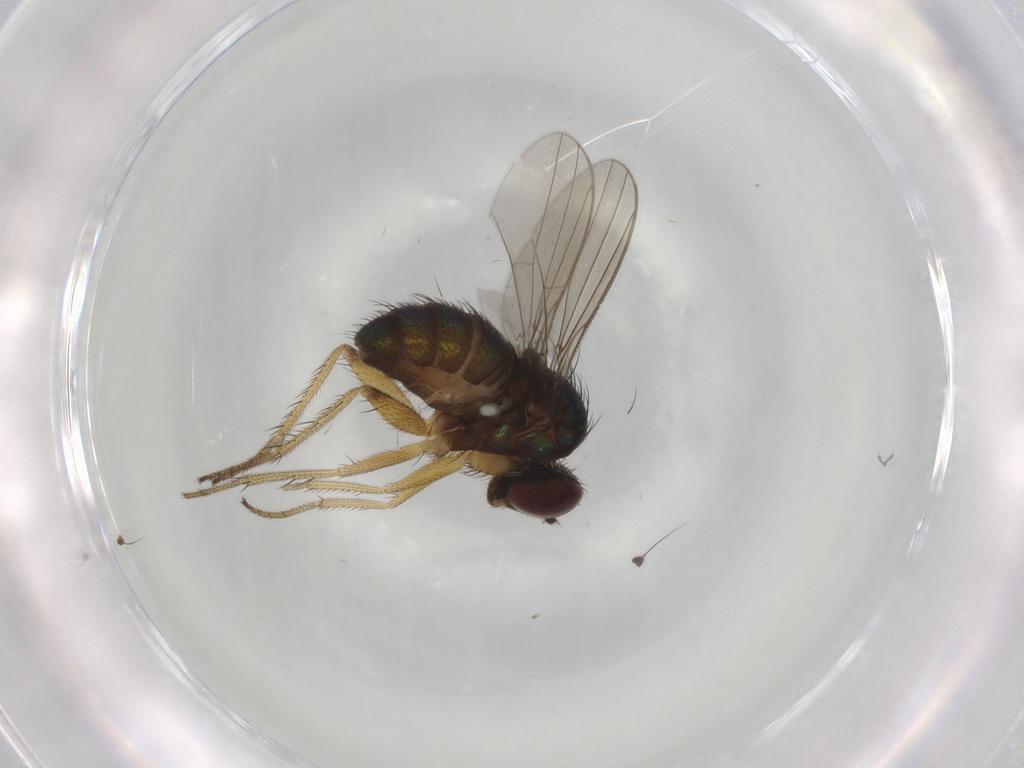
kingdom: Animalia
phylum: Arthropoda
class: Insecta
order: Diptera
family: Dolichopodidae
